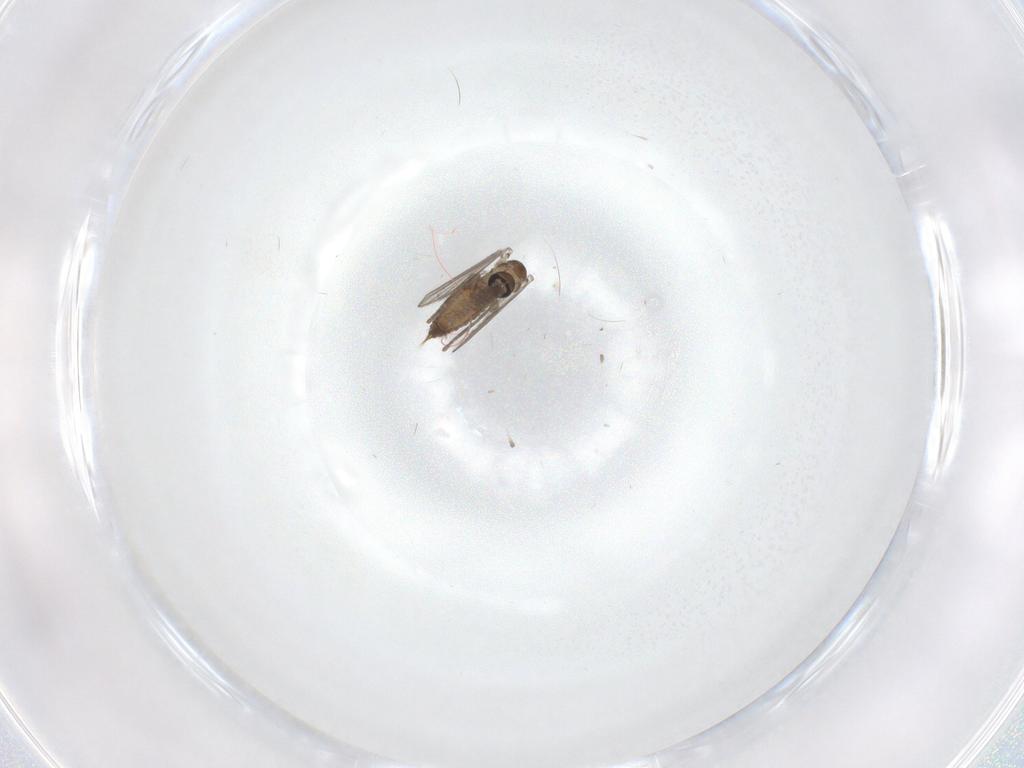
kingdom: Animalia
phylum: Arthropoda
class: Insecta
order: Diptera
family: Psychodidae
